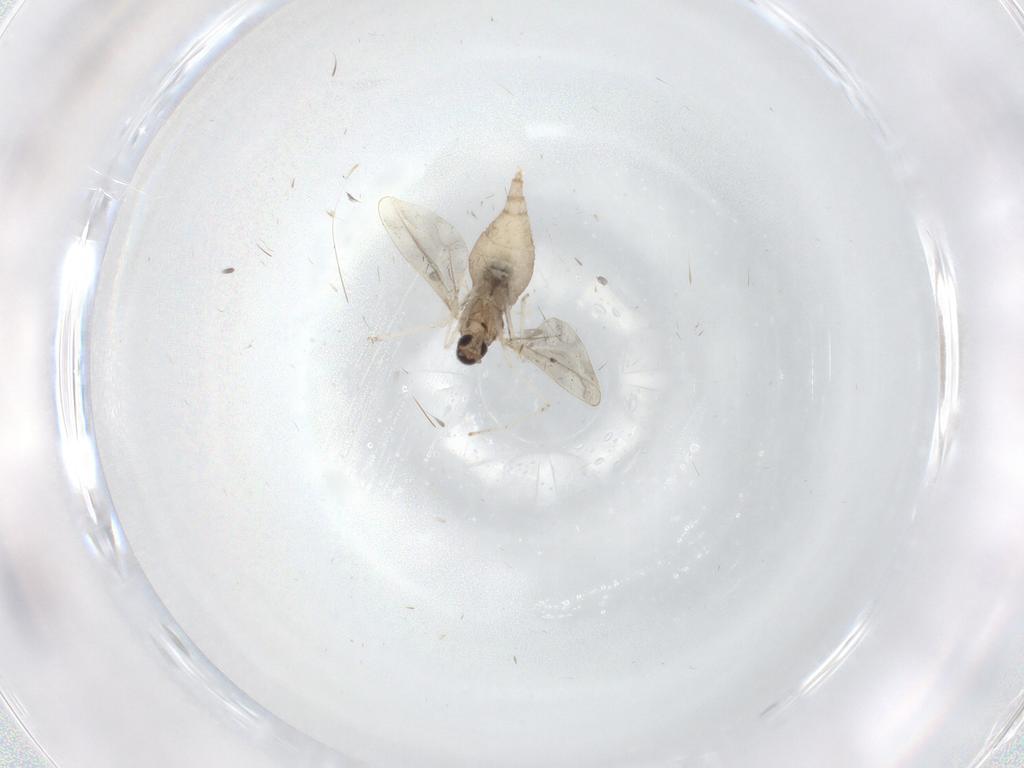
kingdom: Animalia
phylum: Arthropoda
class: Insecta
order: Diptera
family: Cecidomyiidae
